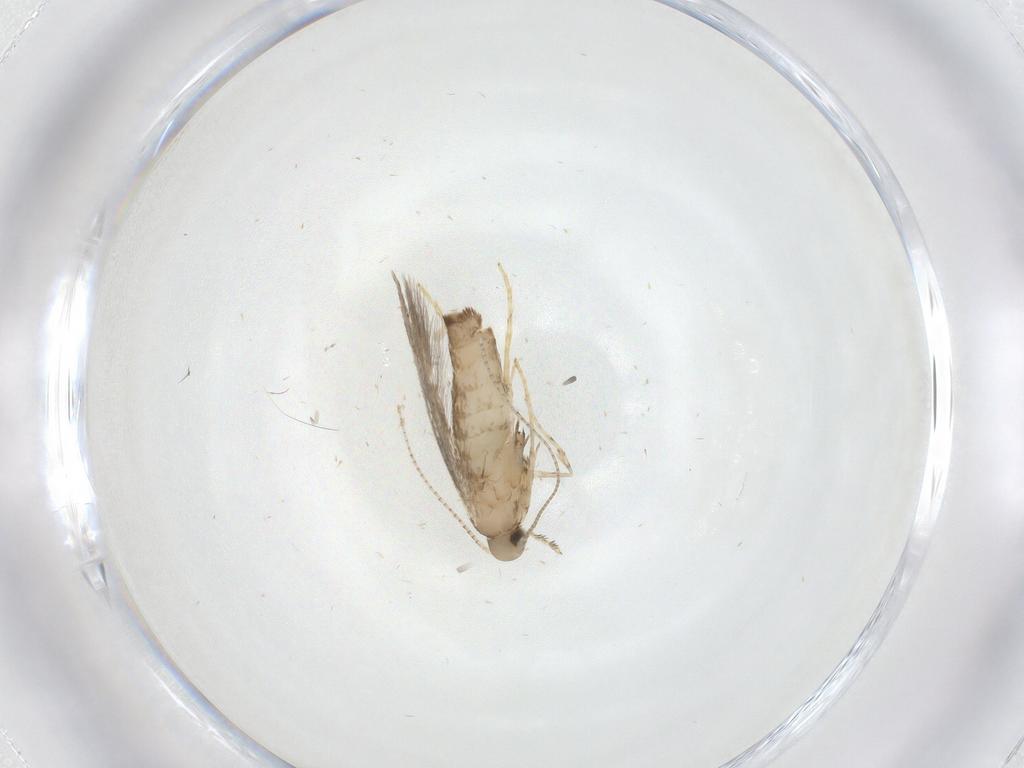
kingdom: Animalia
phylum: Arthropoda
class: Insecta
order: Lepidoptera
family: Gracillariidae
